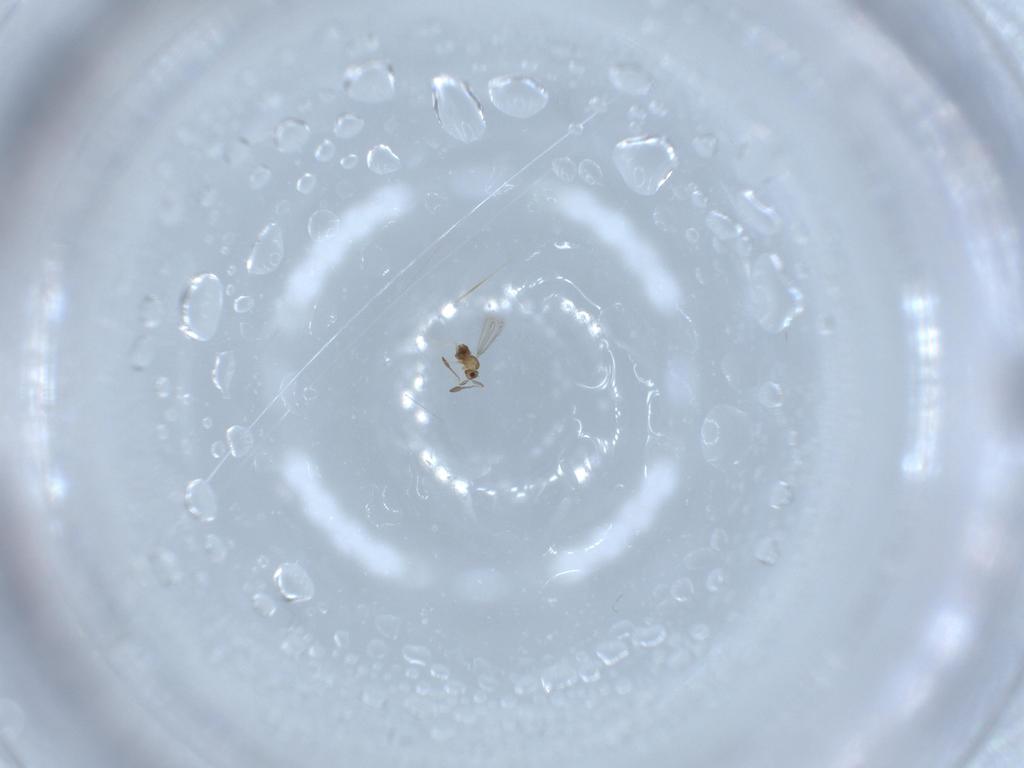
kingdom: Animalia
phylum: Arthropoda
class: Insecta
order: Hymenoptera
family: Mymaridae
